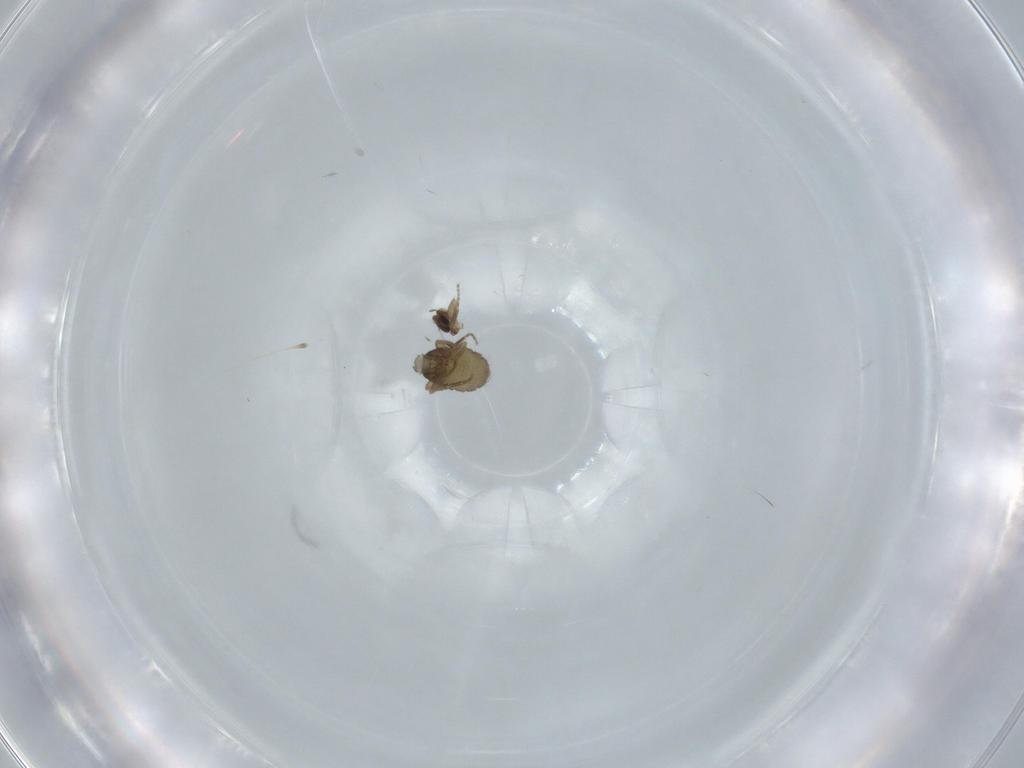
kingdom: Animalia
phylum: Arthropoda
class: Insecta
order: Diptera
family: Phoridae
